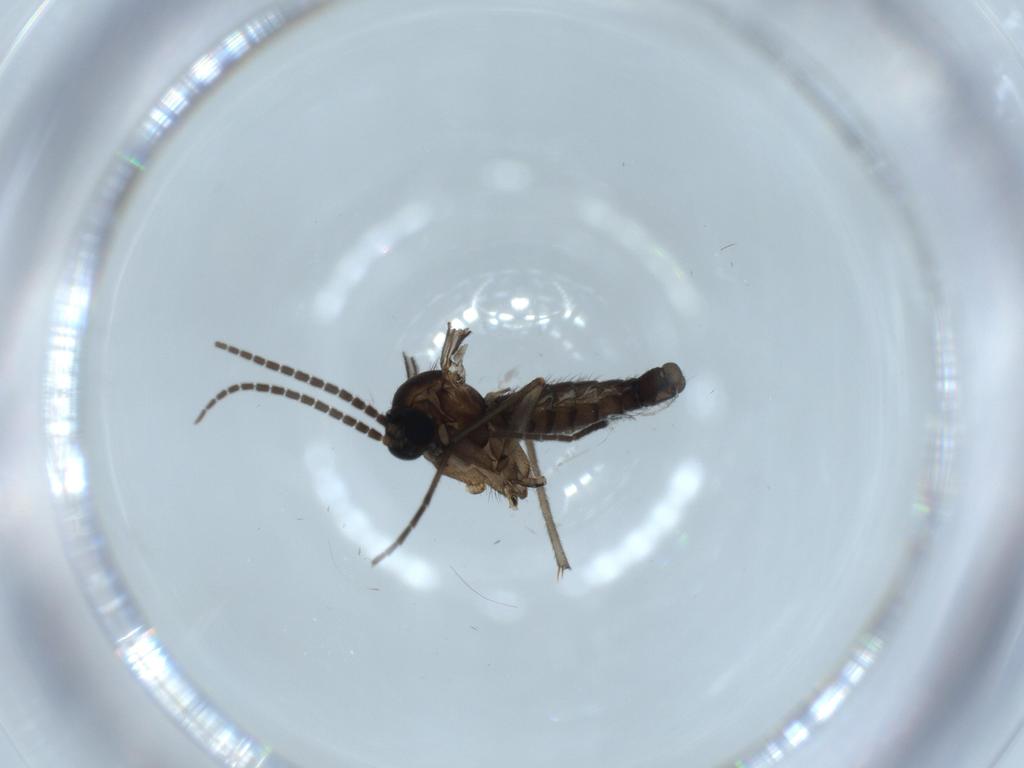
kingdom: Animalia
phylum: Arthropoda
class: Insecta
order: Diptera
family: Sciaridae
